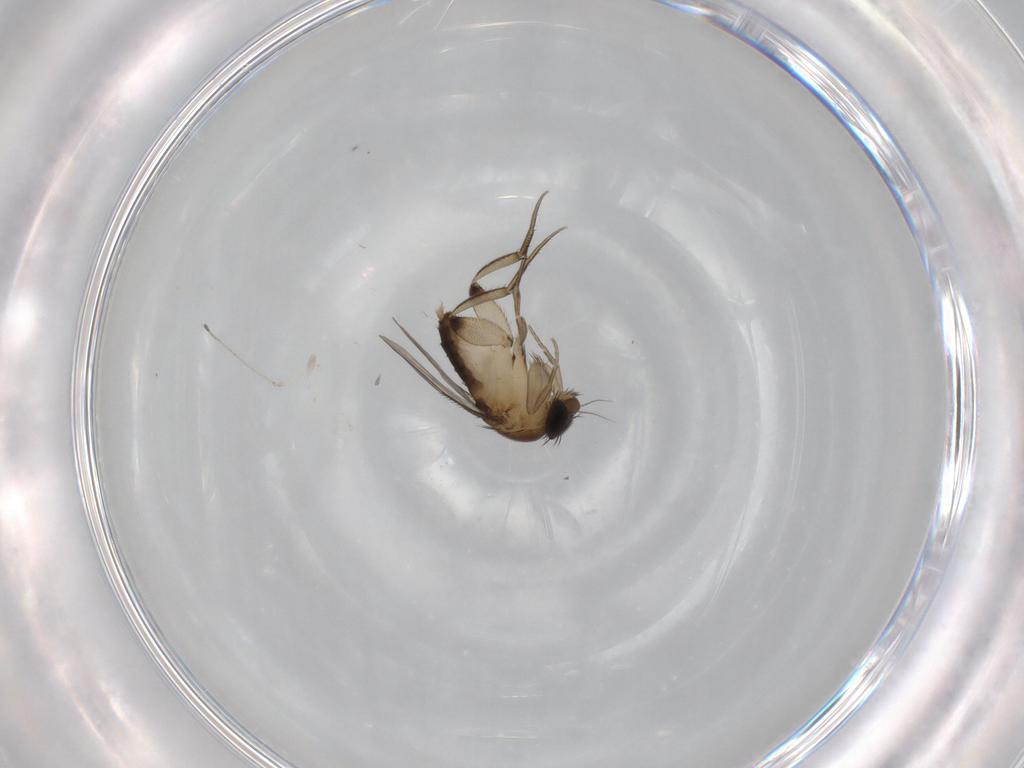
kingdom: Animalia
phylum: Arthropoda
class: Insecta
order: Diptera
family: Phoridae
